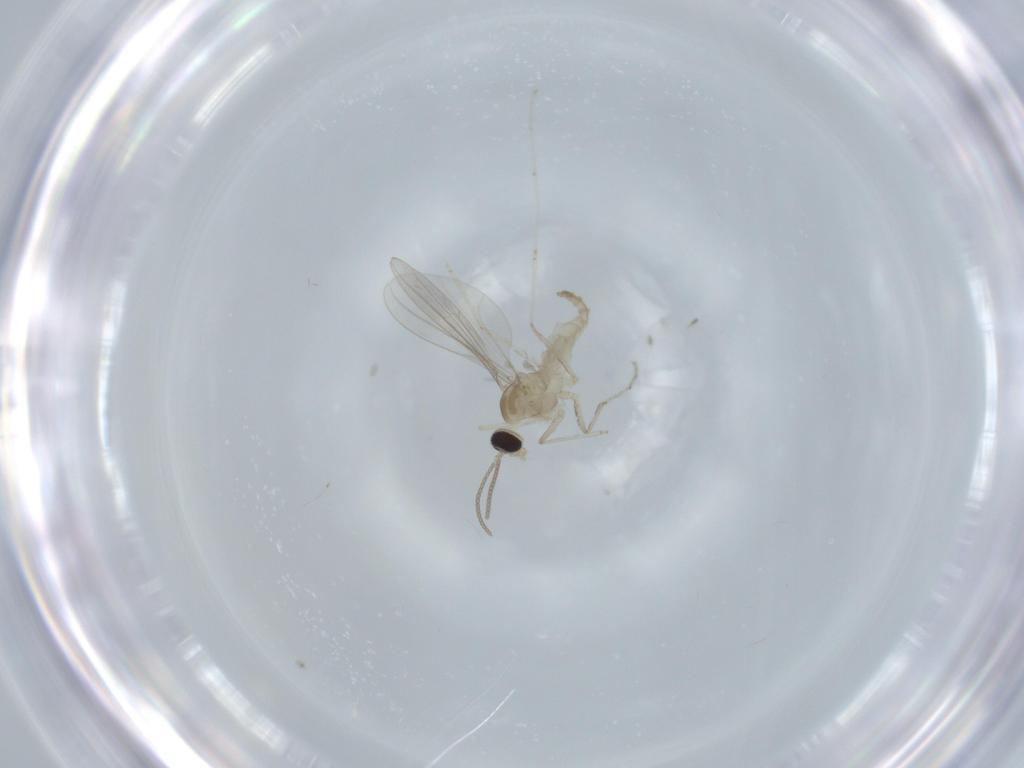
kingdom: Animalia
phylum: Arthropoda
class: Insecta
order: Diptera
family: Cecidomyiidae
